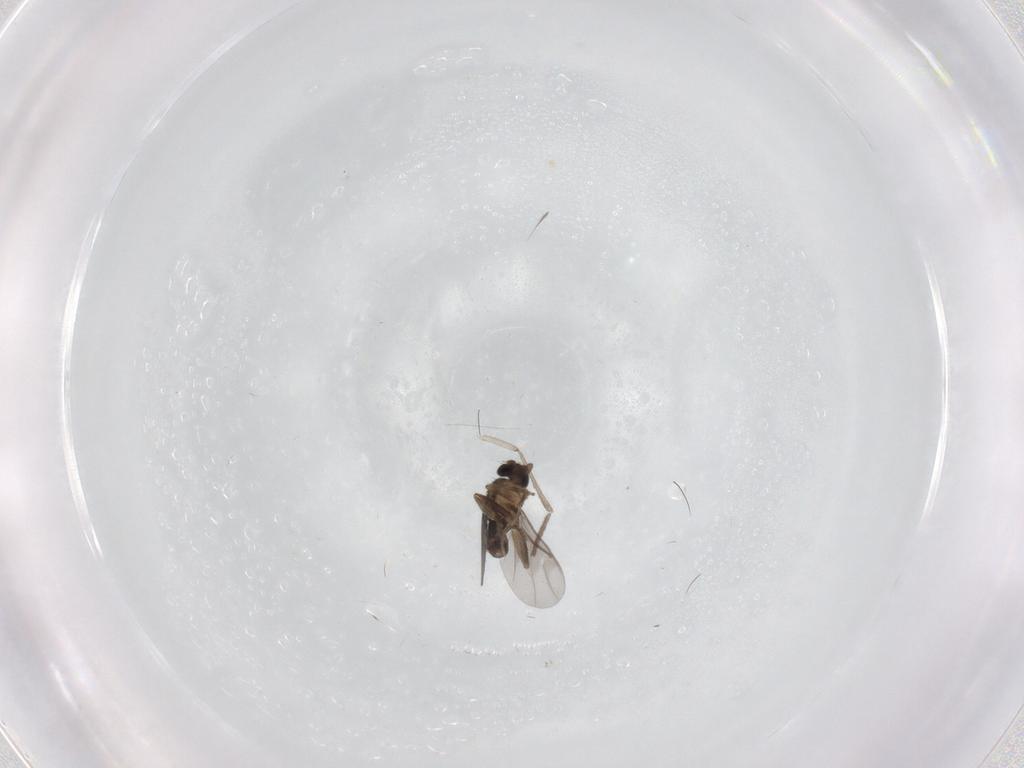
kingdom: Animalia
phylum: Arthropoda
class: Insecta
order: Diptera
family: Psychodidae
